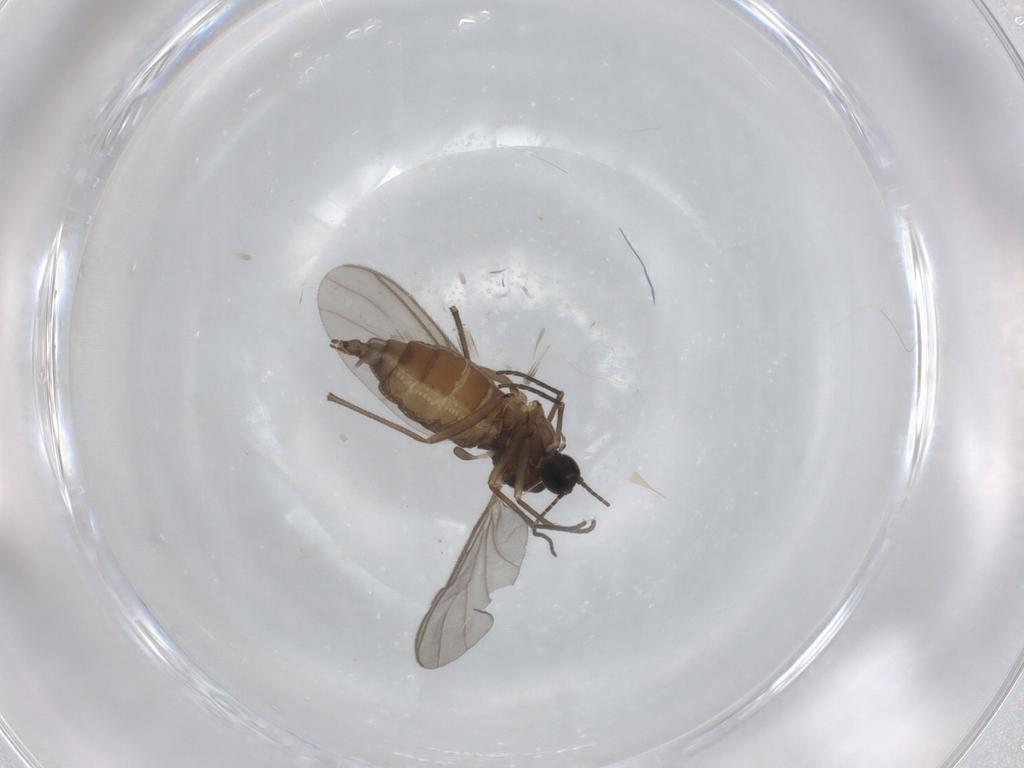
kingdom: Animalia
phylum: Arthropoda
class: Insecta
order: Diptera
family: Sciaridae
